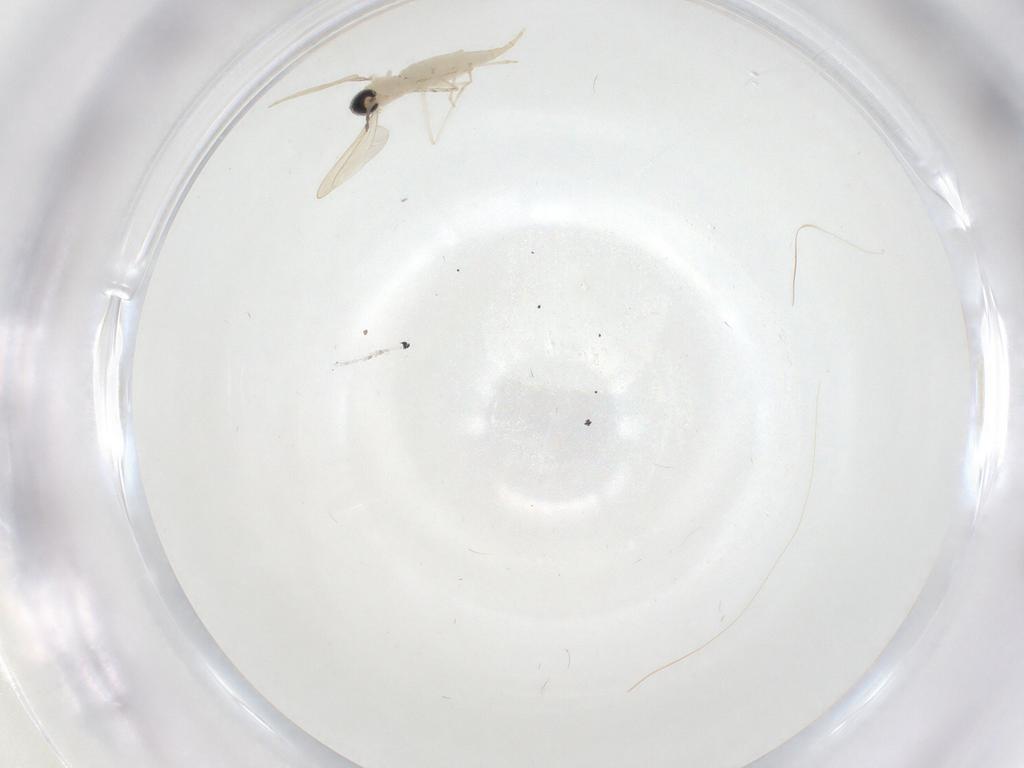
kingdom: Animalia
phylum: Arthropoda
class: Insecta
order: Diptera
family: Cecidomyiidae
